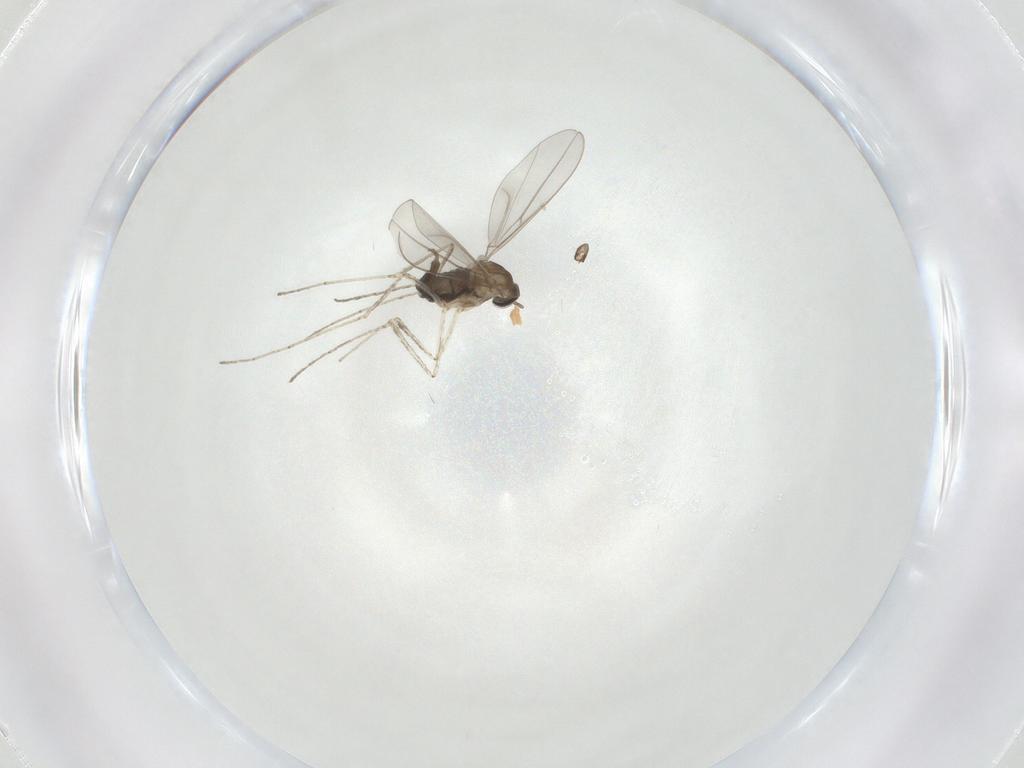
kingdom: Animalia
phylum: Arthropoda
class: Insecta
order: Diptera
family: Cecidomyiidae
